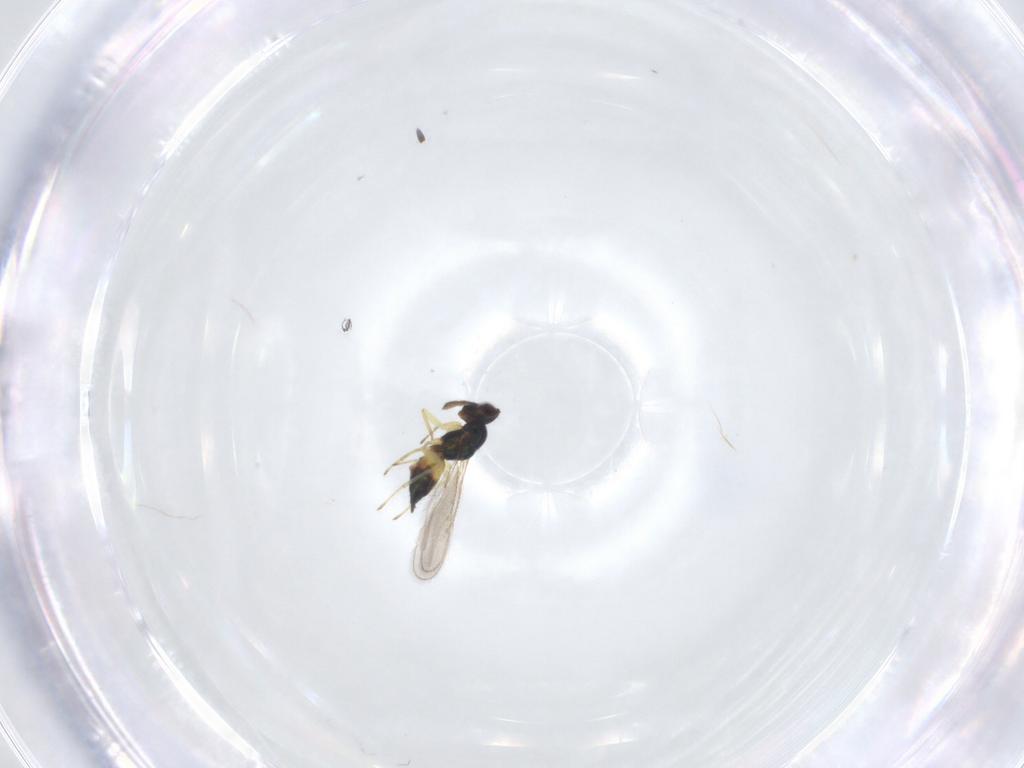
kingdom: Animalia
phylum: Arthropoda
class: Insecta
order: Hymenoptera
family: Eulophidae
